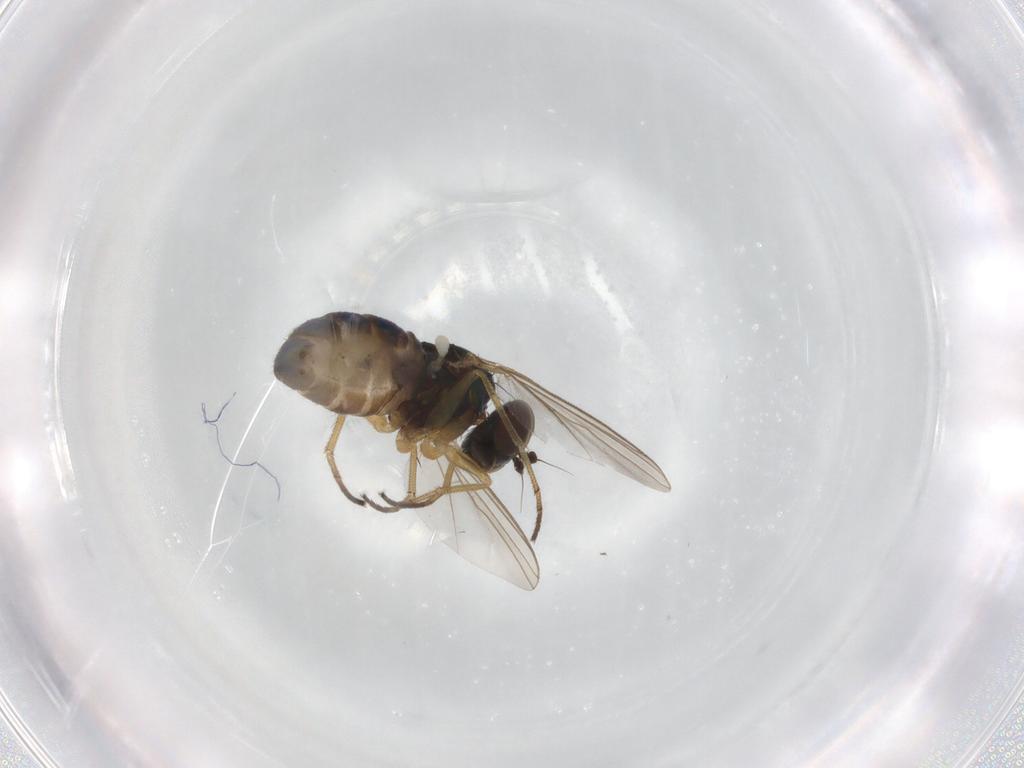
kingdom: Animalia
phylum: Arthropoda
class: Insecta
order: Diptera
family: Dolichopodidae
